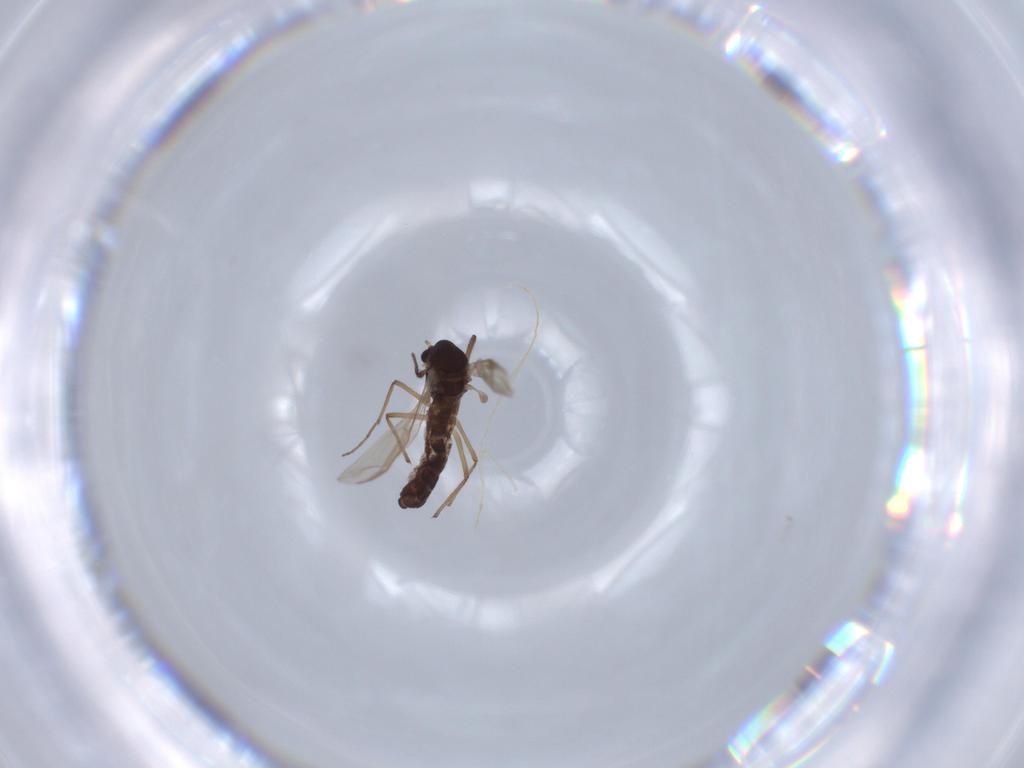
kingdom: Animalia
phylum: Arthropoda
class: Insecta
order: Diptera
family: Chironomidae
